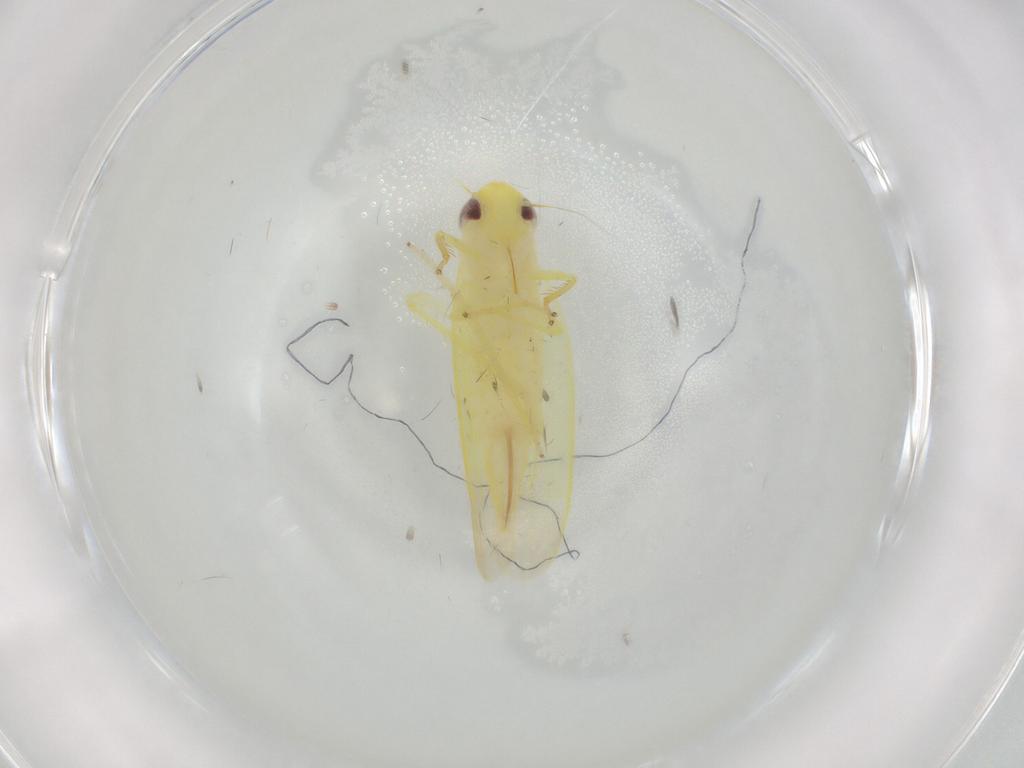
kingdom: Animalia
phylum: Arthropoda
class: Insecta
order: Hemiptera
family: Cicadellidae
